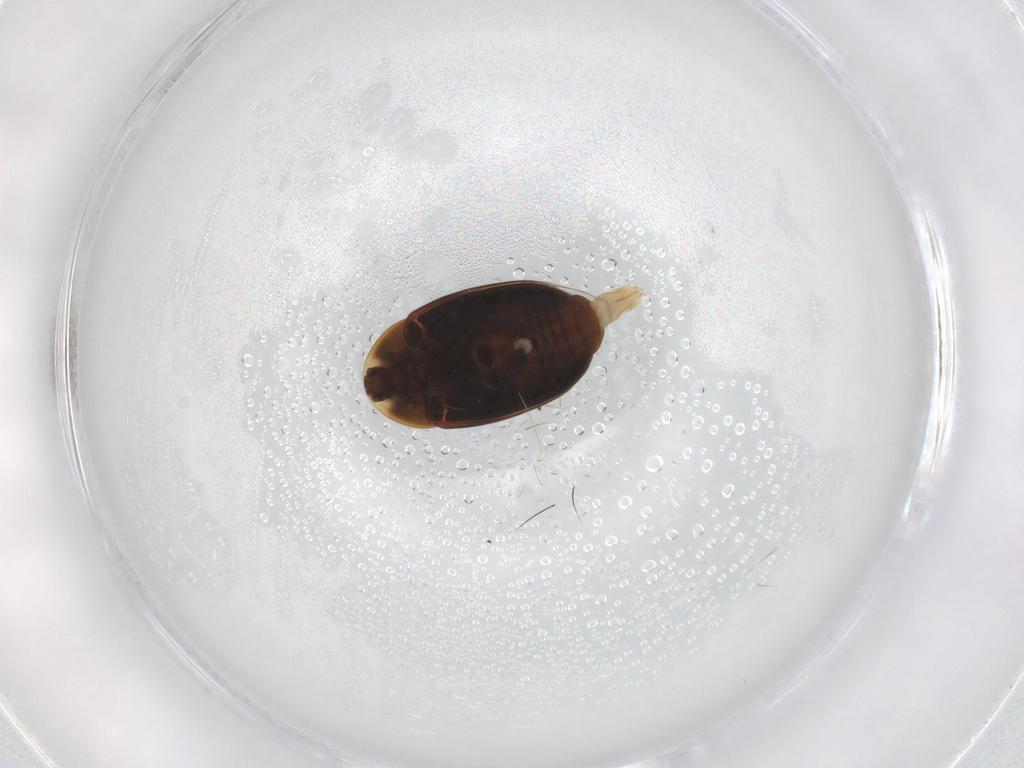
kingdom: Animalia
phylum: Arthropoda
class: Insecta
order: Coleoptera
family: Corylophidae
